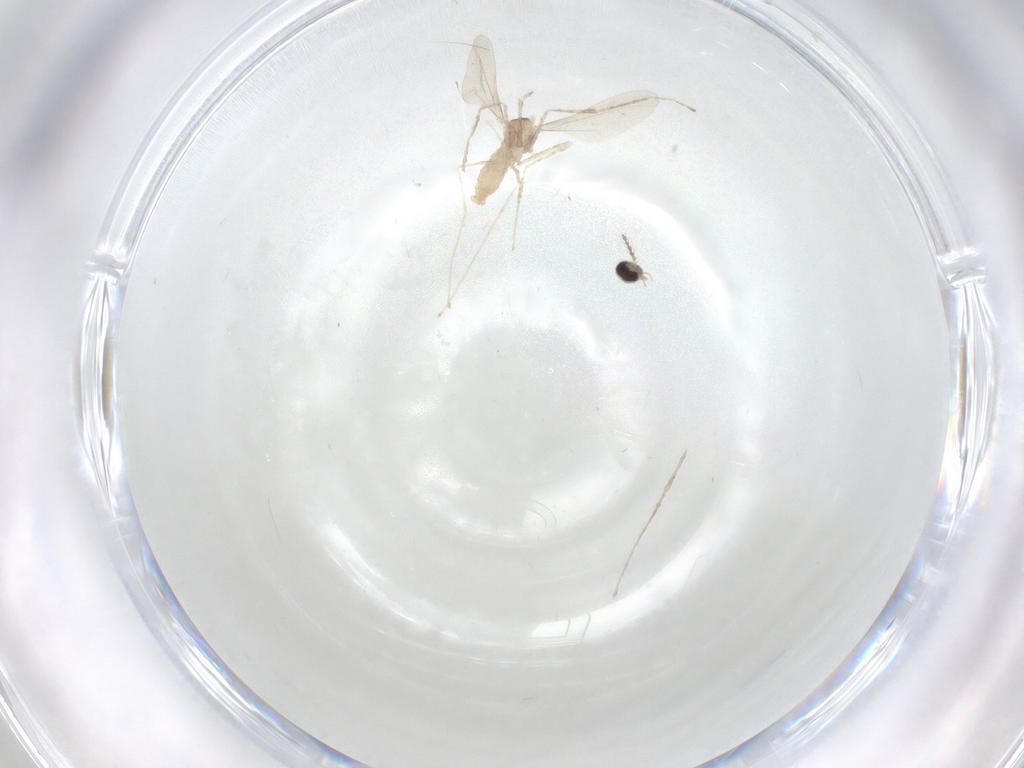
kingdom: Animalia
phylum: Arthropoda
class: Insecta
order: Diptera
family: Cecidomyiidae
